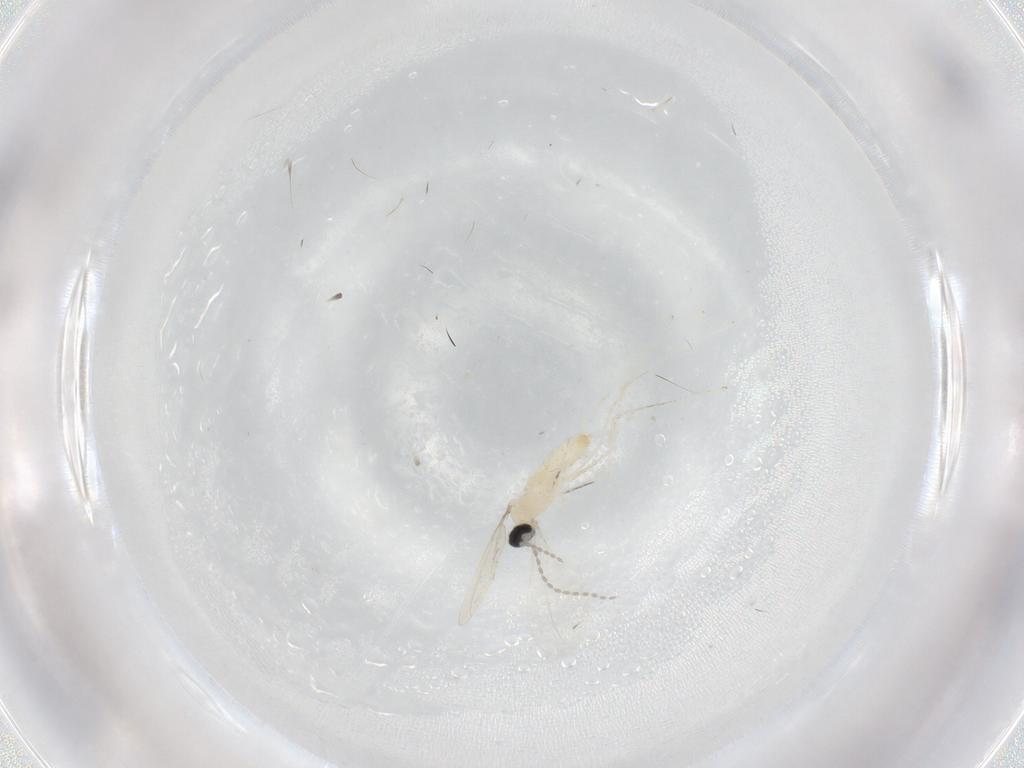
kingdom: Animalia
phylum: Arthropoda
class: Insecta
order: Diptera
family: Cecidomyiidae
